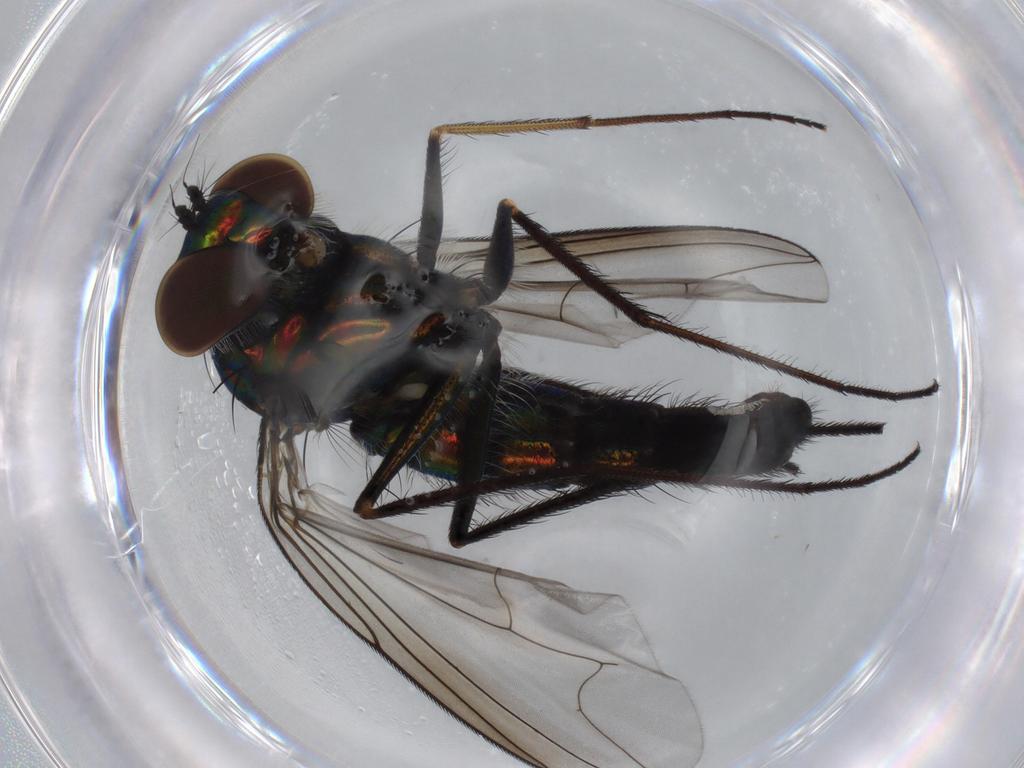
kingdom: Animalia
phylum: Arthropoda
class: Insecta
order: Diptera
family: Dolichopodidae
